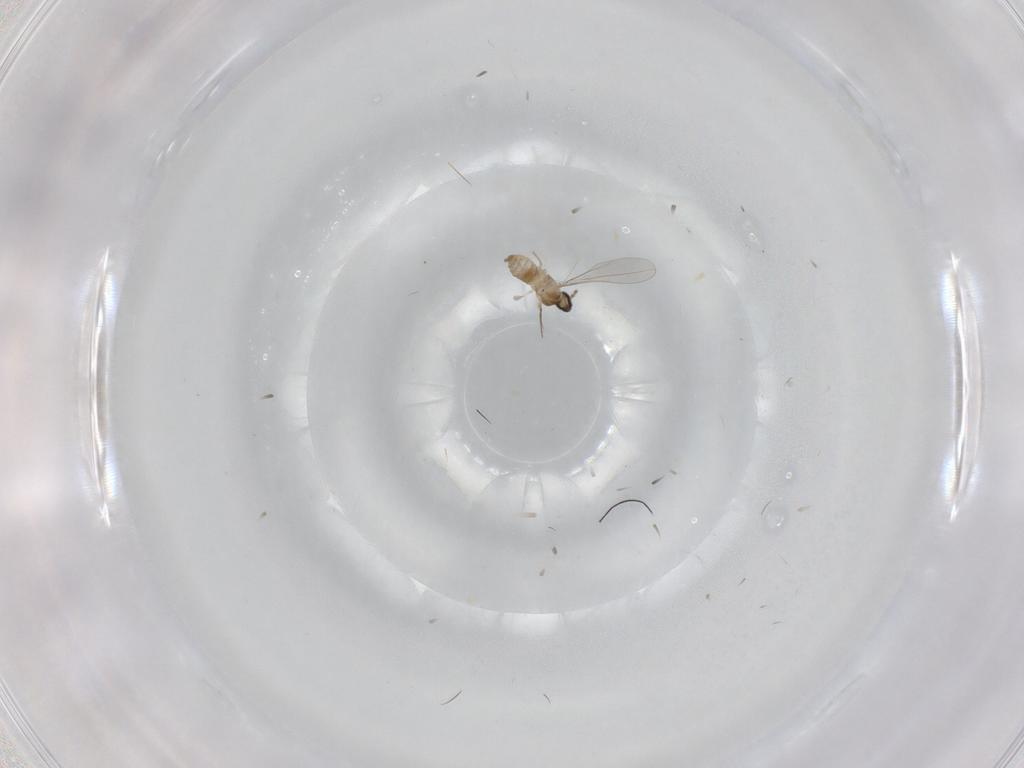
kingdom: Animalia
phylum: Arthropoda
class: Insecta
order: Diptera
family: Cecidomyiidae
